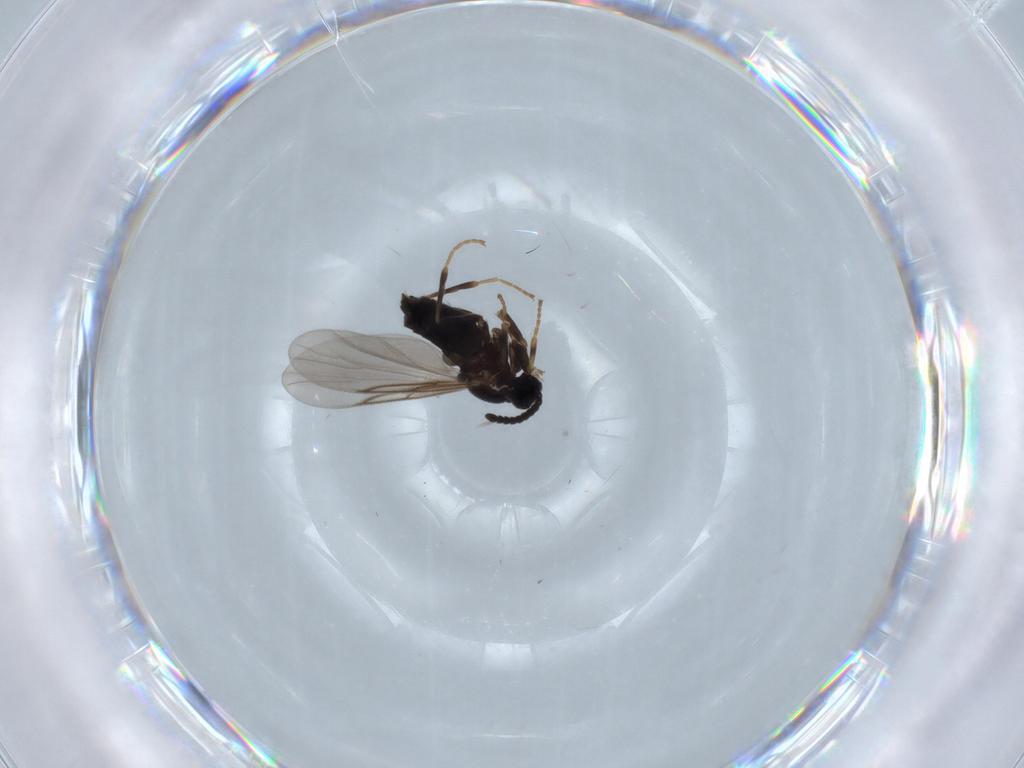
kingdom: Animalia
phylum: Arthropoda
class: Insecta
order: Diptera
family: Scatopsidae
